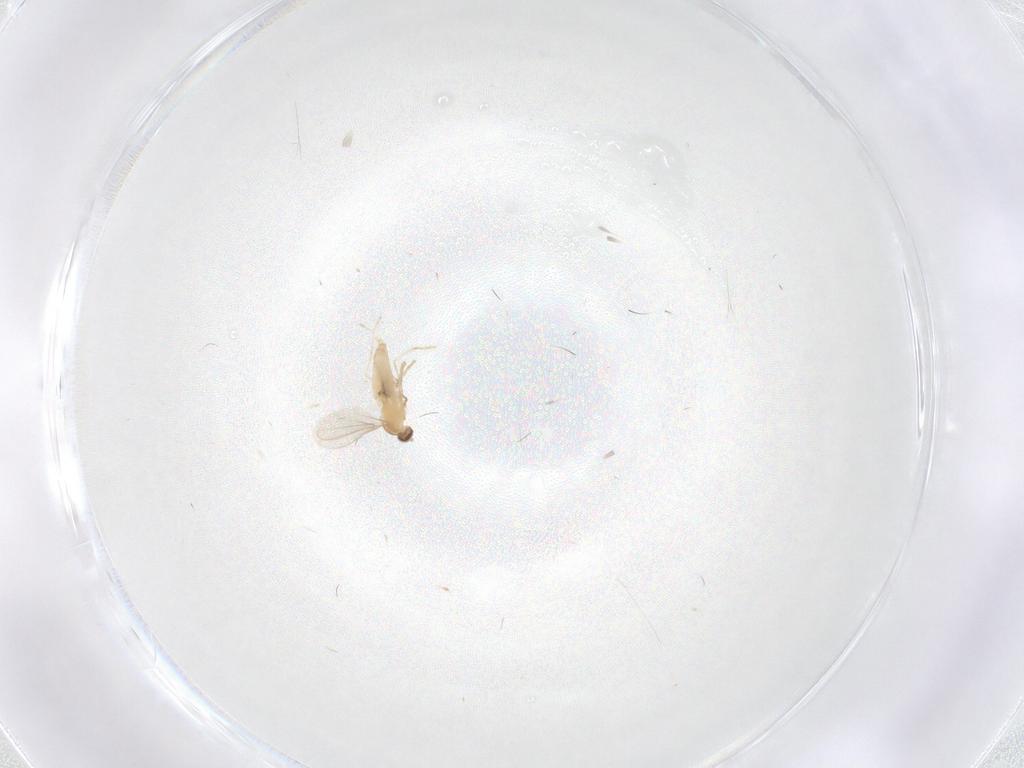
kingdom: Animalia
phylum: Arthropoda
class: Insecta
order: Diptera
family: Cecidomyiidae
